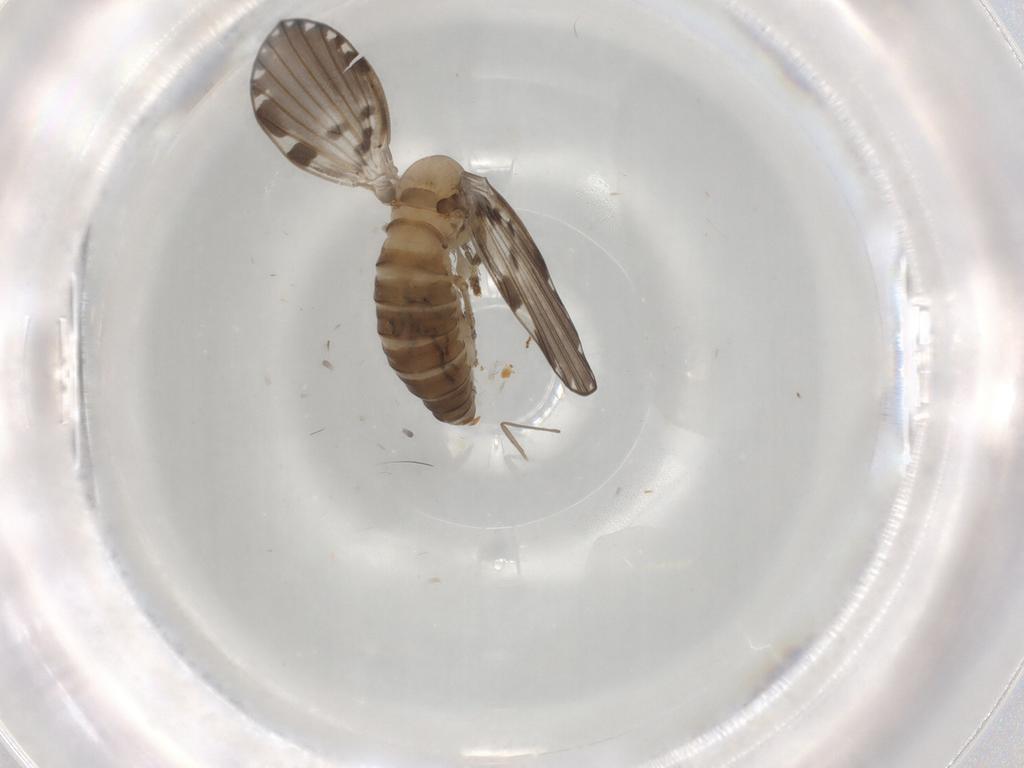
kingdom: Animalia
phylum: Arthropoda
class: Insecta
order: Diptera
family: Psychodidae
